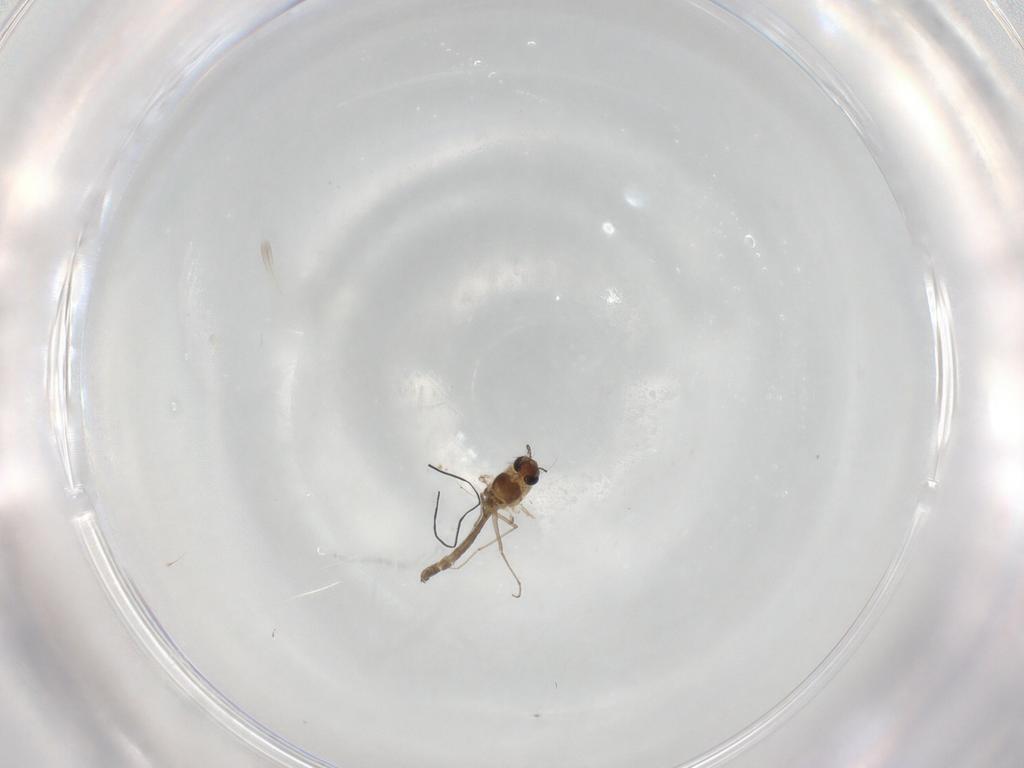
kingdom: Animalia
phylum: Arthropoda
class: Insecta
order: Diptera
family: Chironomidae
